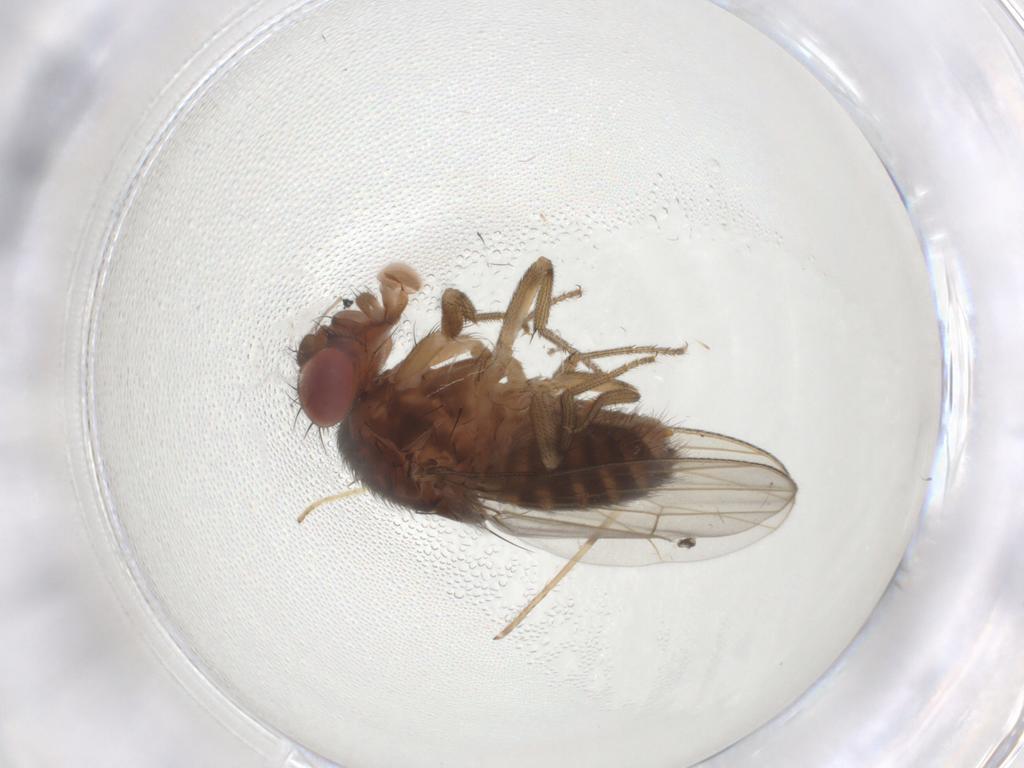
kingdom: Animalia
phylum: Arthropoda
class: Insecta
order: Diptera
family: Drosophilidae
